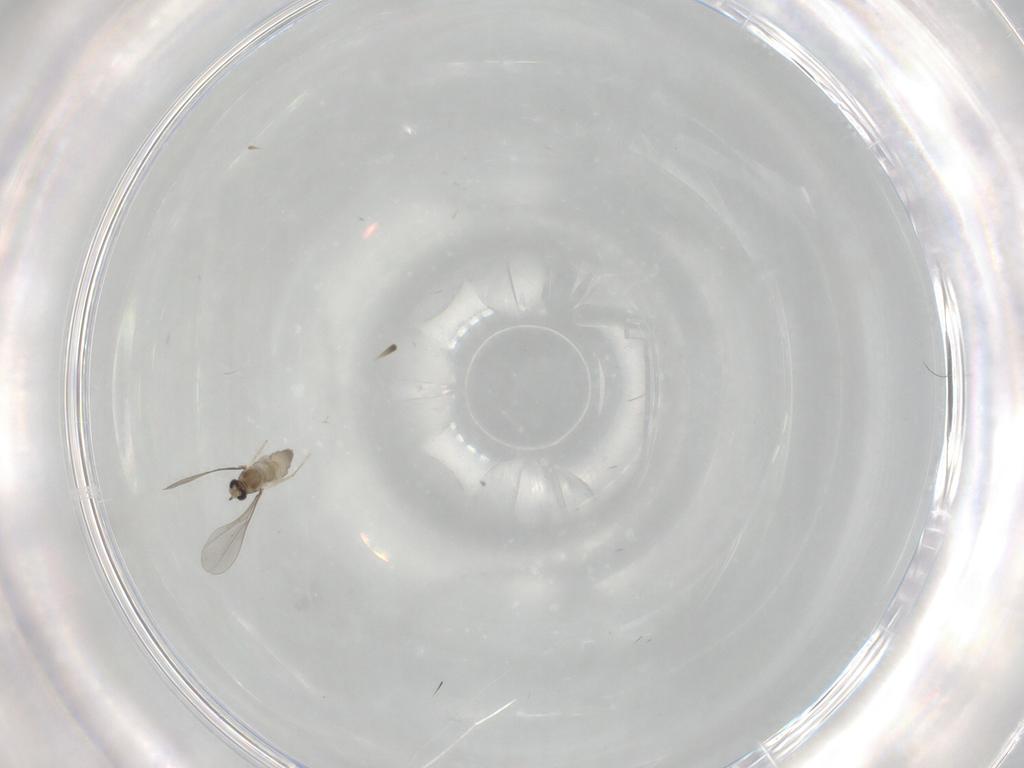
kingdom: Animalia
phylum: Arthropoda
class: Insecta
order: Diptera
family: Cecidomyiidae
